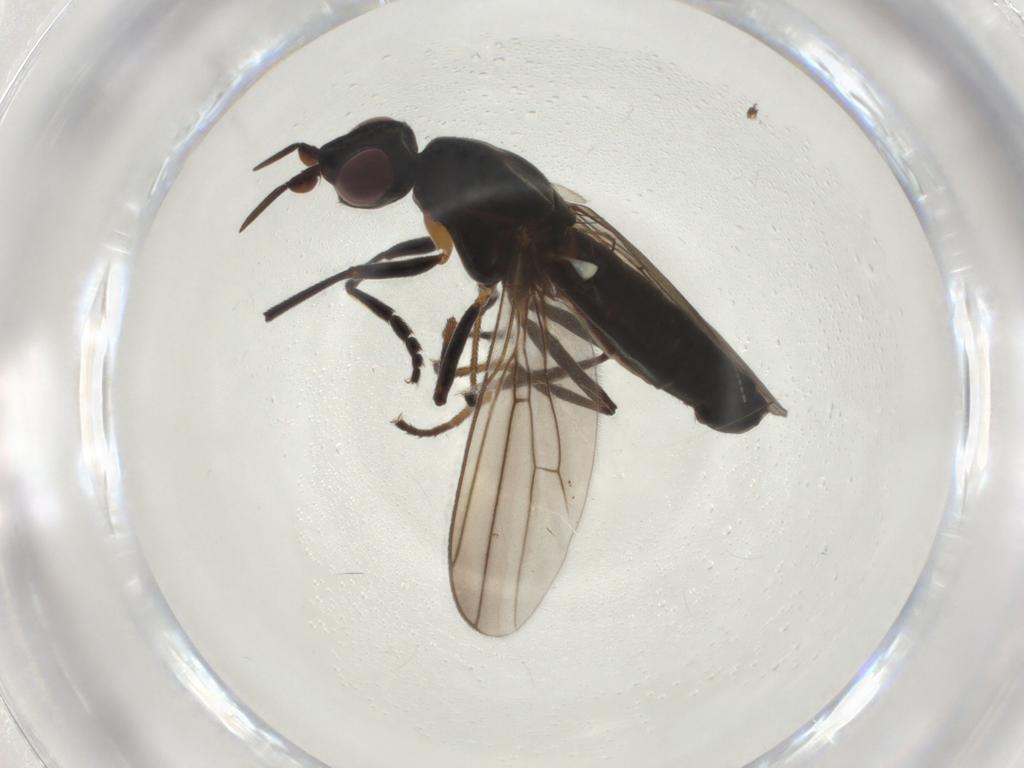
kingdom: Animalia
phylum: Arthropoda
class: Insecta
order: Diptera
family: Chloropidae
